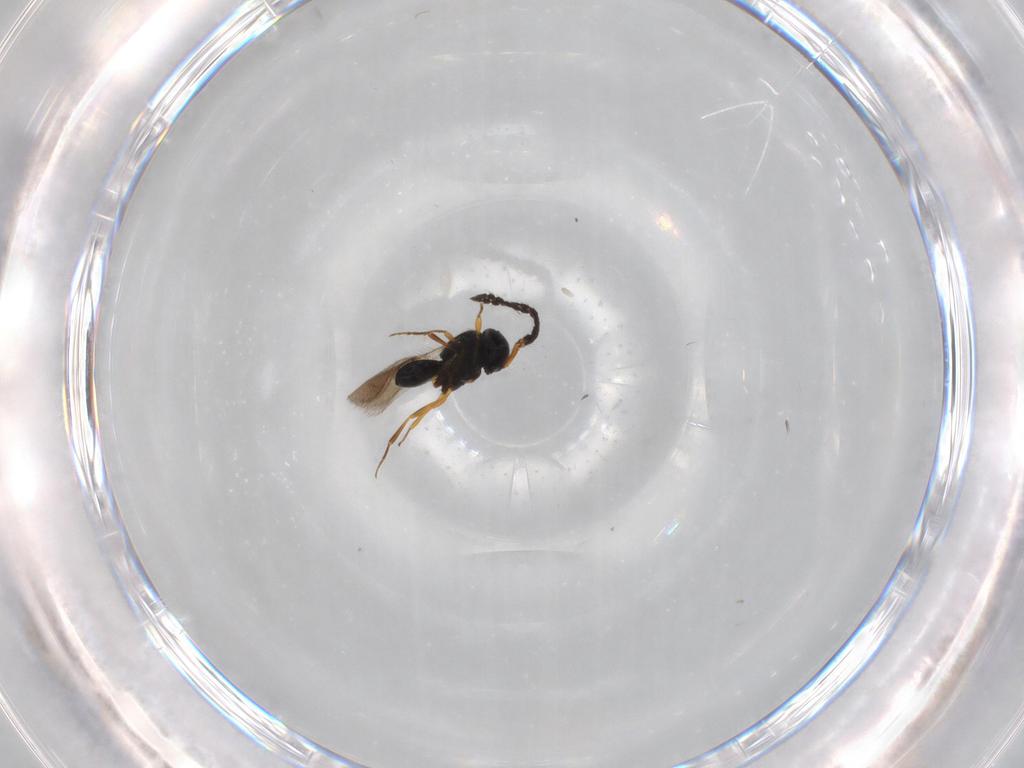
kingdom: Animalia
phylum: Arthropoda
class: Insecta
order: Hymenoptera
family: Scelionidae
